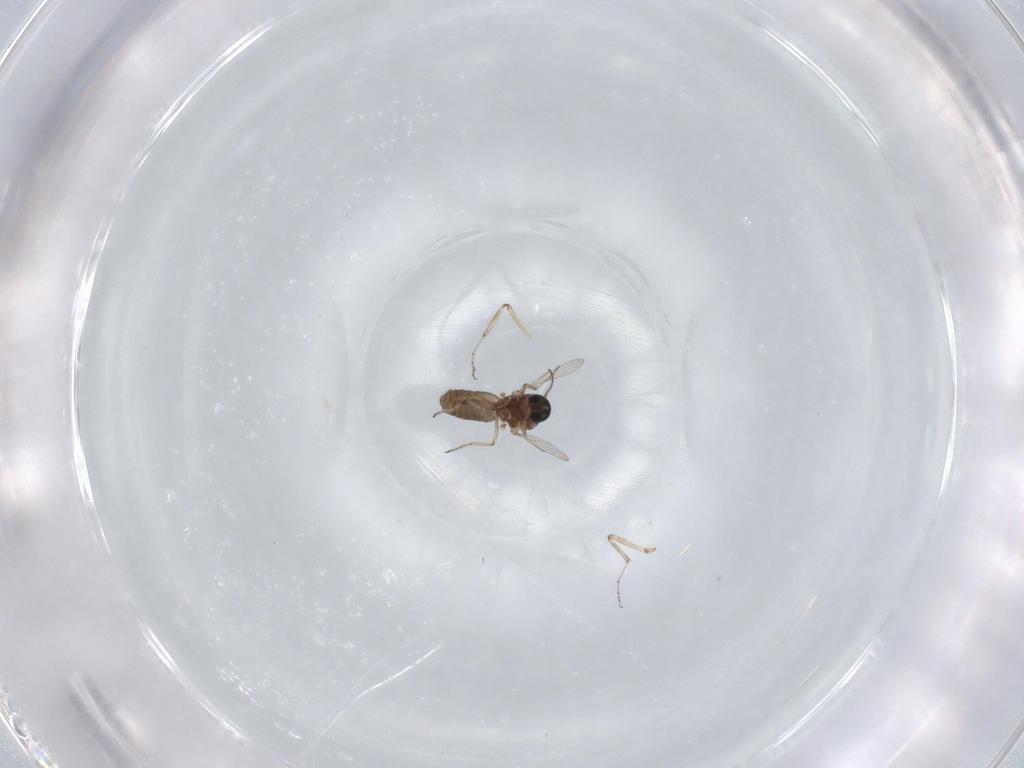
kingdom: Animalia
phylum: Arthropoda
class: Insecta
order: Diptera
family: Ceratopogonidae
